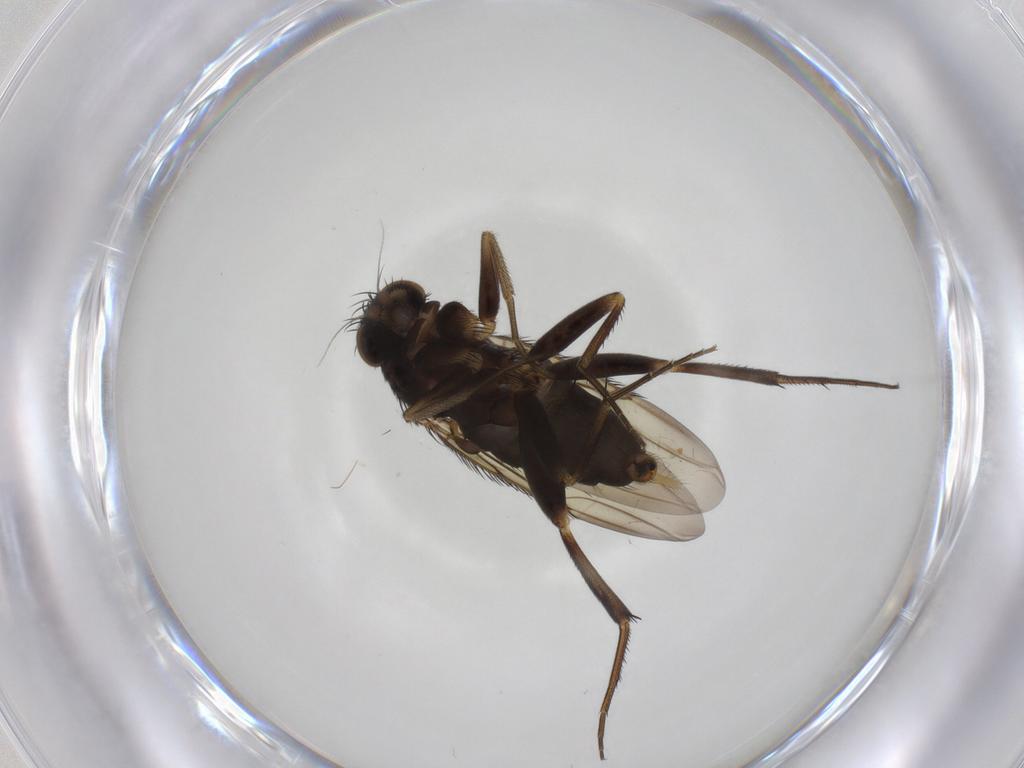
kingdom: Animalia
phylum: Arthropoda
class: Insecta
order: Diptera
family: Phoridae
